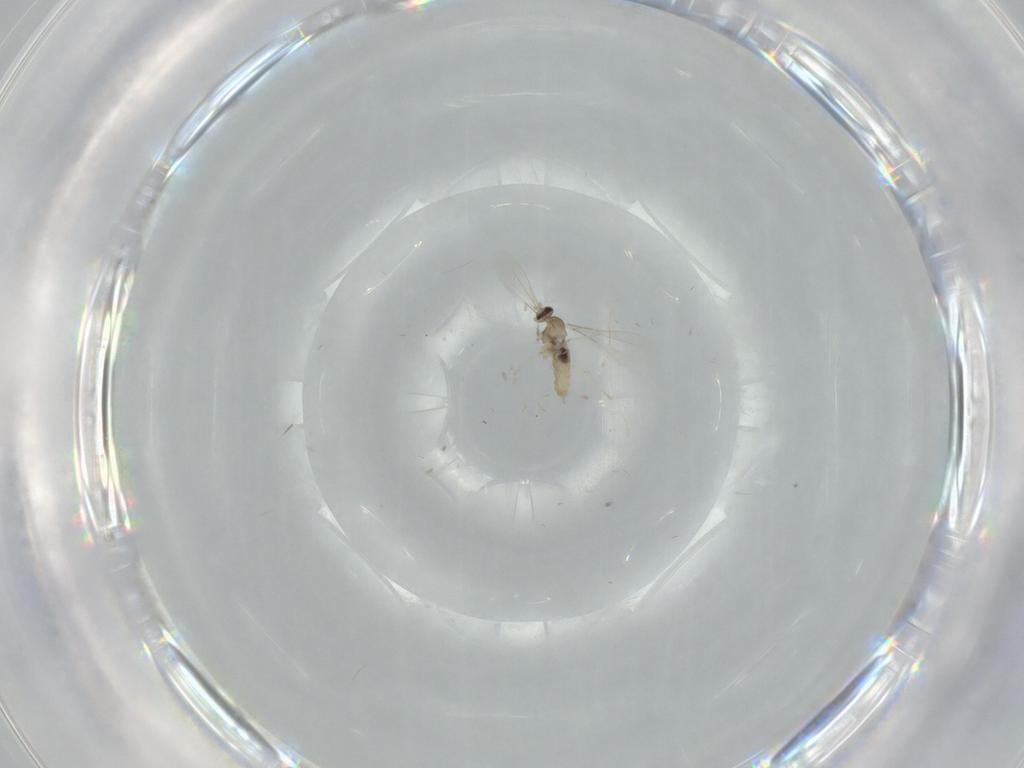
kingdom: Animalia
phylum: Arthropoda
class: Insecta
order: Diptera
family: Cecidomyiidae
